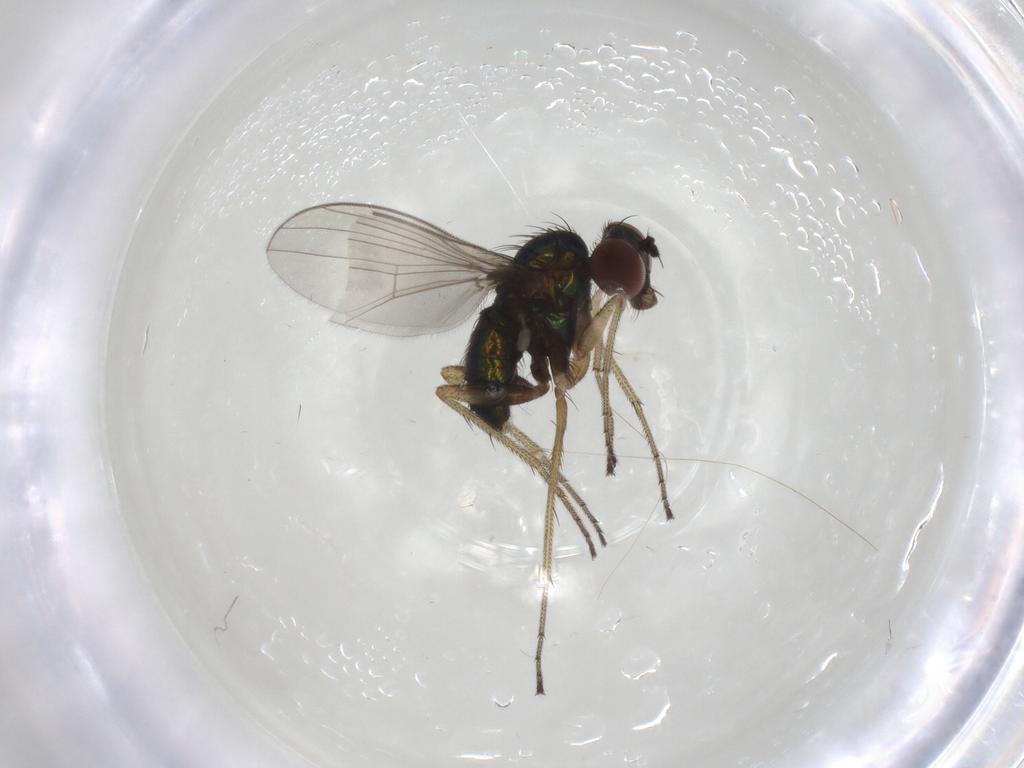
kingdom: Animalia
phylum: Arthropoda
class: Insecta
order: Diptera
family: Dolichopodidae
